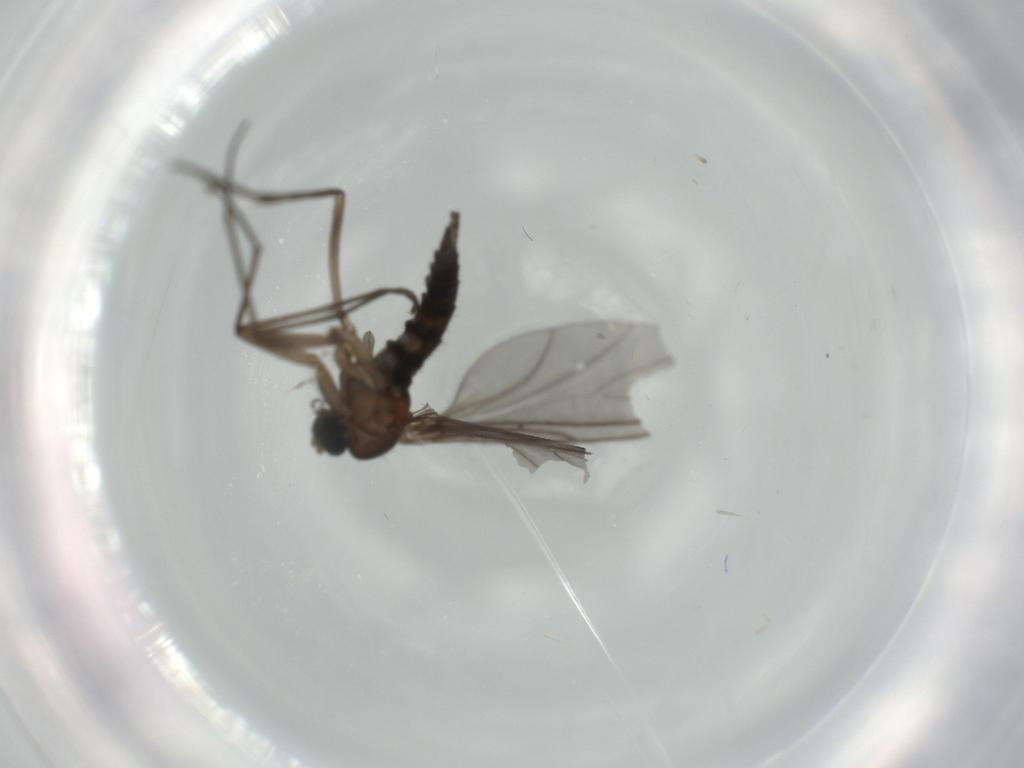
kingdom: Animalia
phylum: Arthropoda
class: Insecta
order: Diptera
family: Sciaridae
